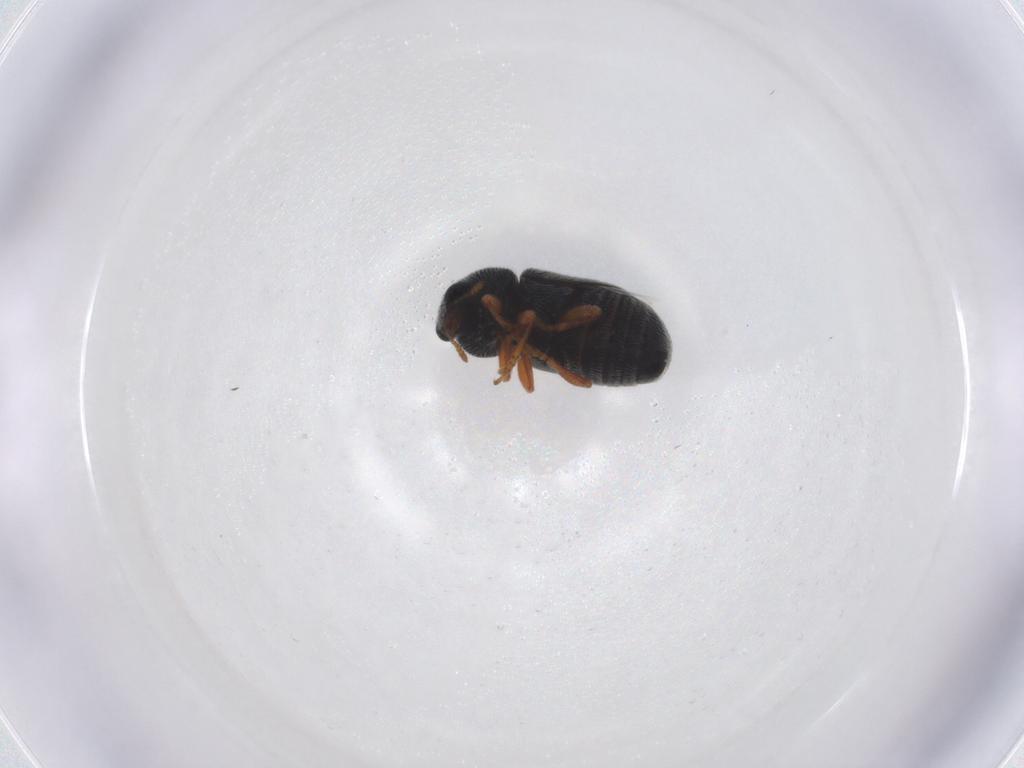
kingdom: Animalia
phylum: Arthropoda
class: Insecta
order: Coleoptera
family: Anthribidae
